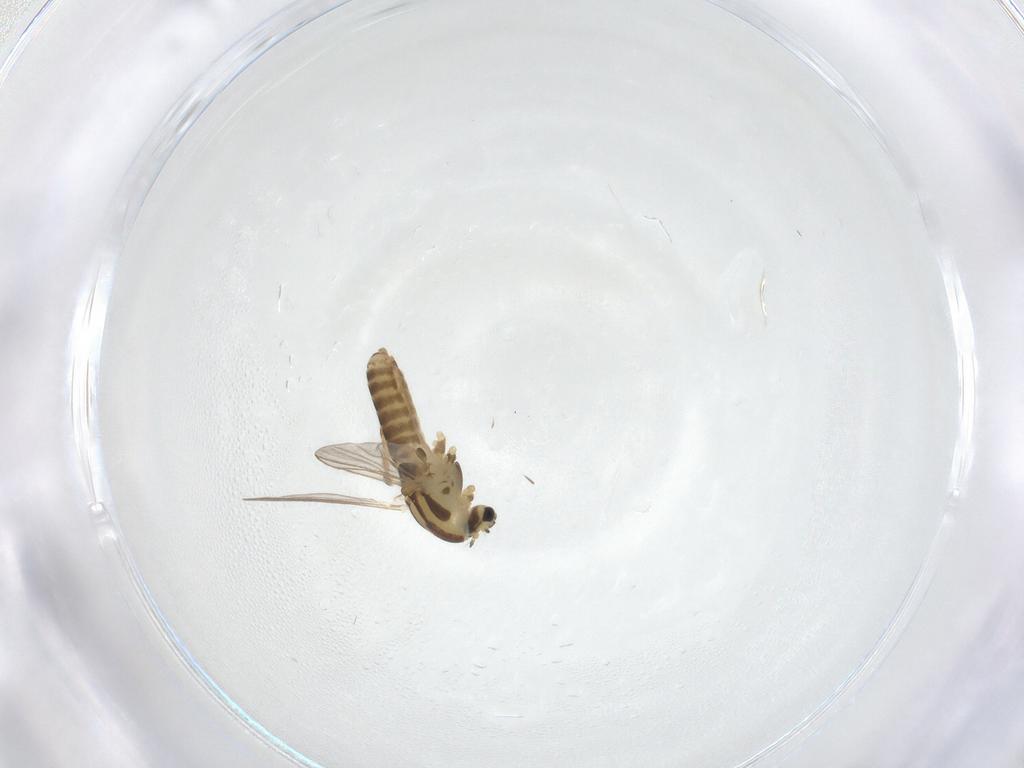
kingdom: Animalia
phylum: Arthropoda
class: Insecta
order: Diptera
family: Chironomidae
